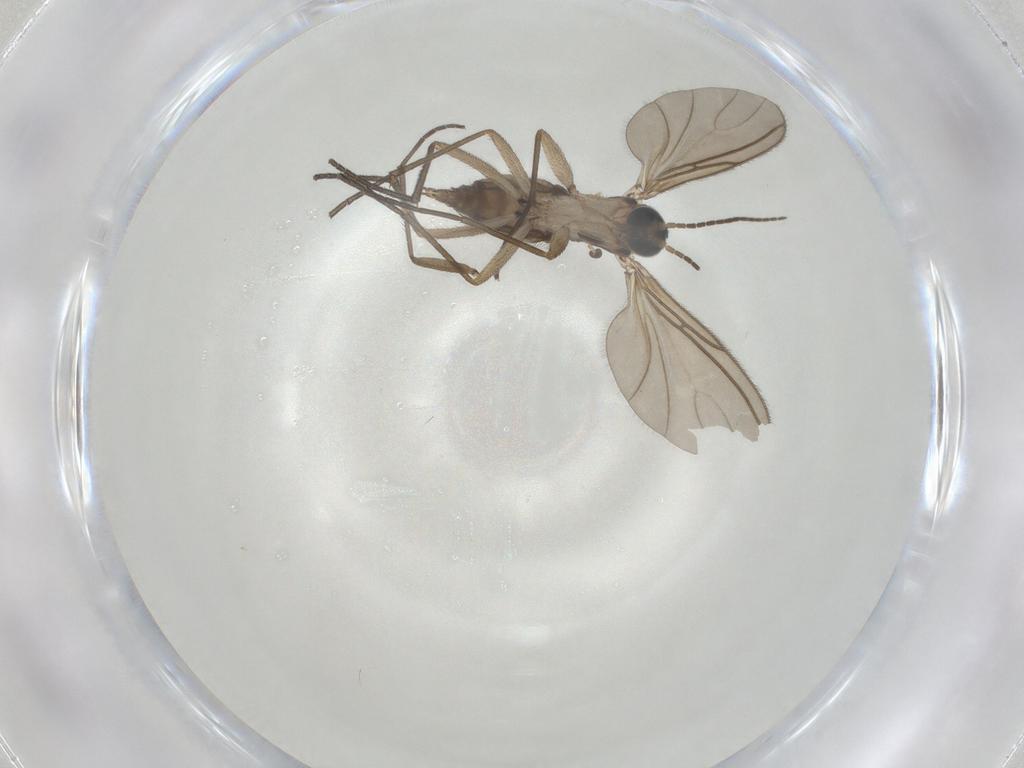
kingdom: Animalia
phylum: Arthropoda
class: Insecta
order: Diptera
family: Sciaridae
